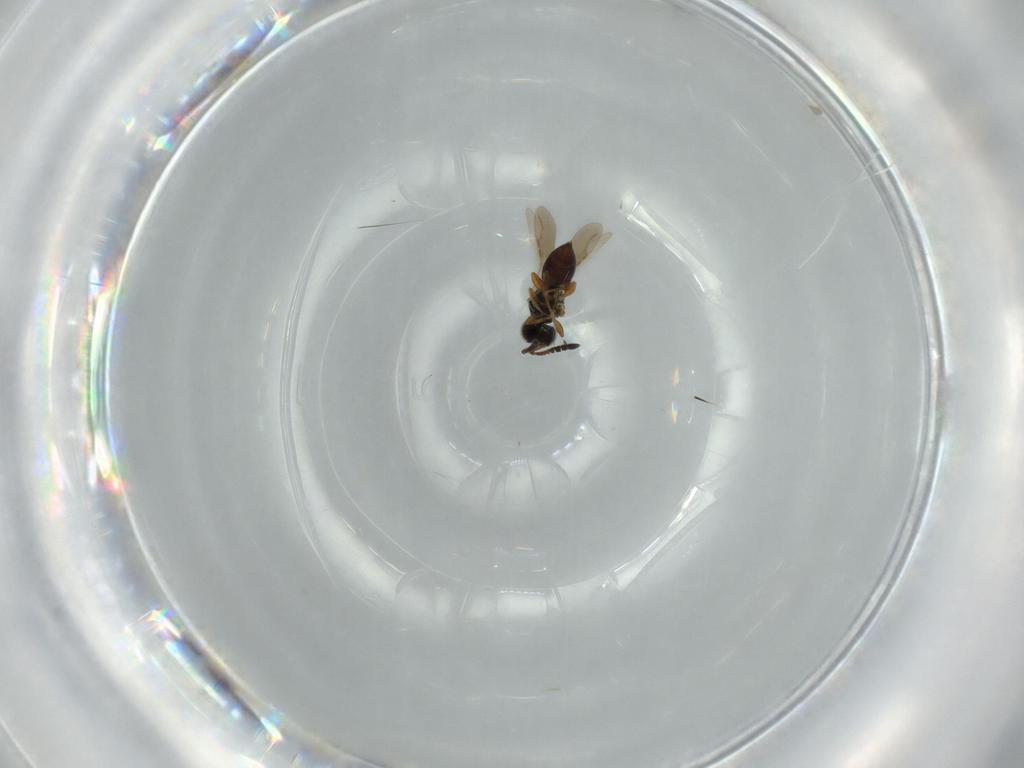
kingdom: Animalia
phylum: Arthropoda
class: Insecta
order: Hymenoptera
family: Ceraphronidae
